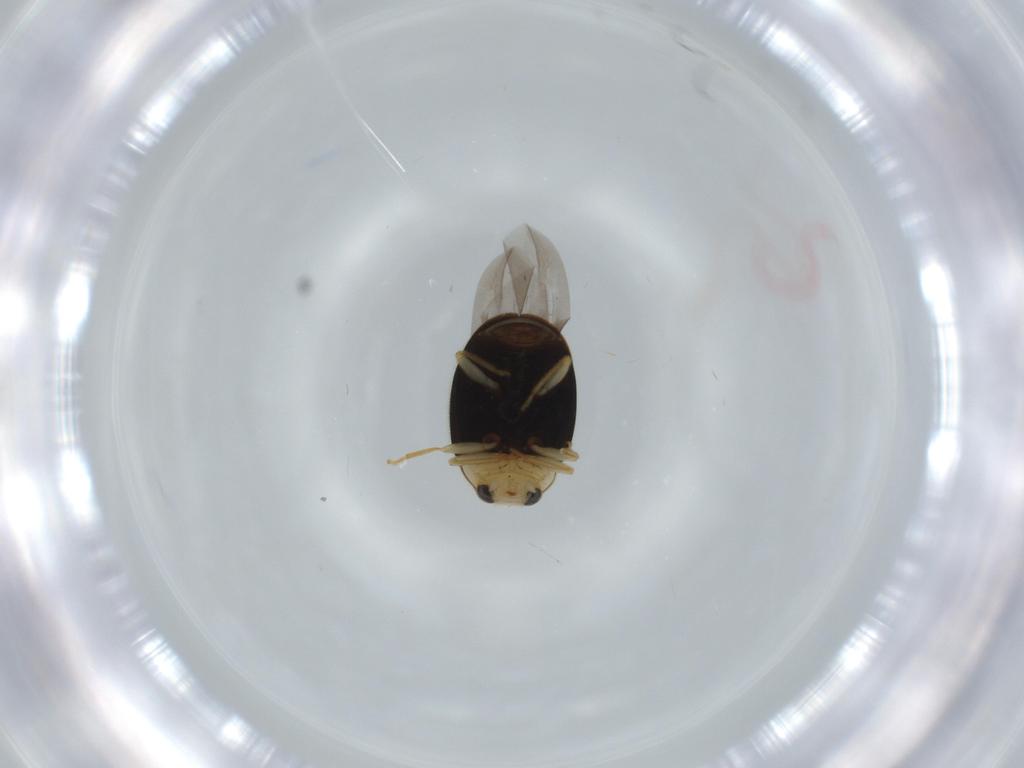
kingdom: Animalia
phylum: Arthropoda
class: Insecta
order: Coleoptera
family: Coccinellidae
